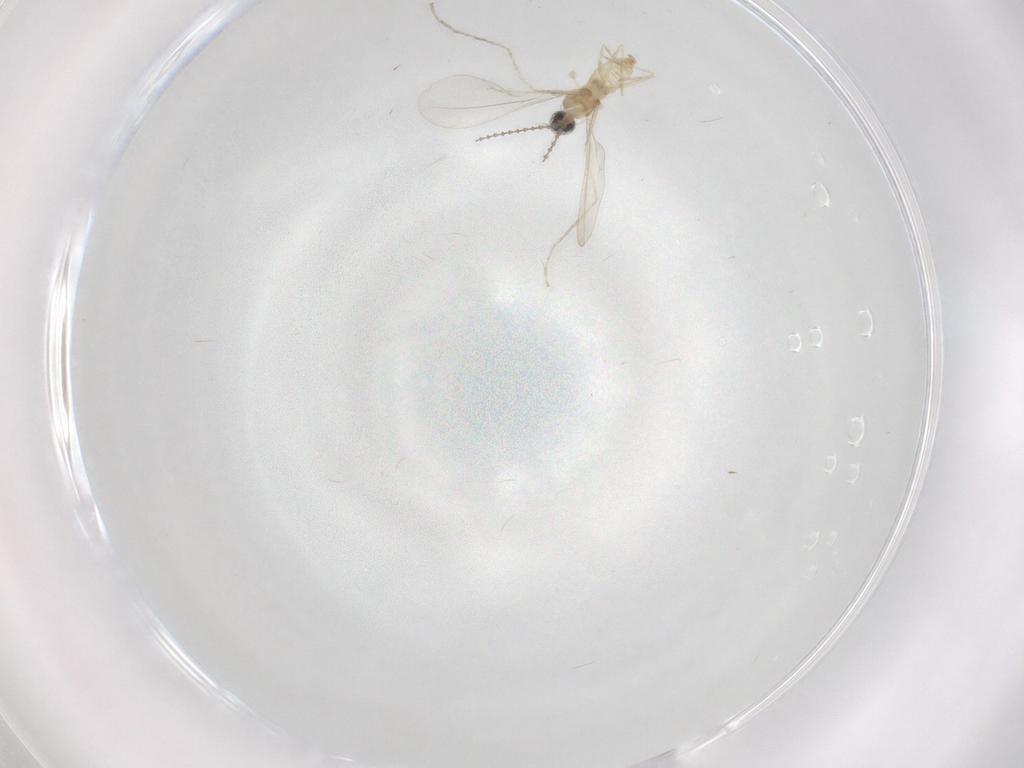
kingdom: Animalia
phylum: Arthropoda
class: Insecta
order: Diptera
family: Cecidomyiidae
